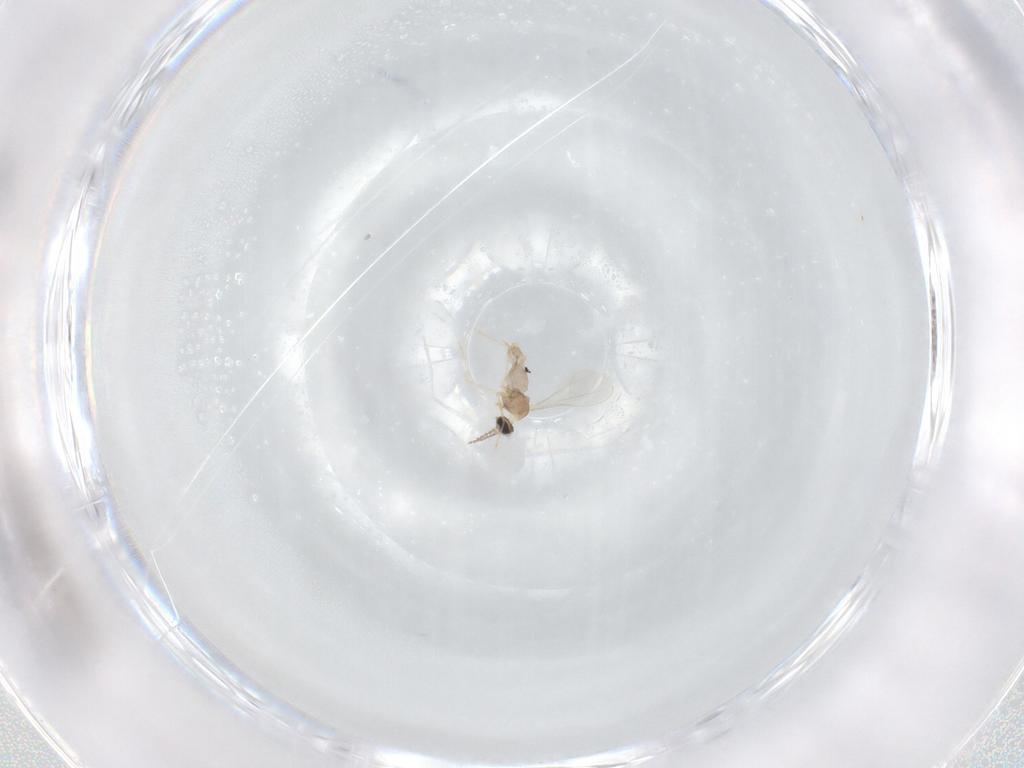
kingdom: Animalia
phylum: Arthropoda
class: Insecta
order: Diptera
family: Cecidomyiidae
